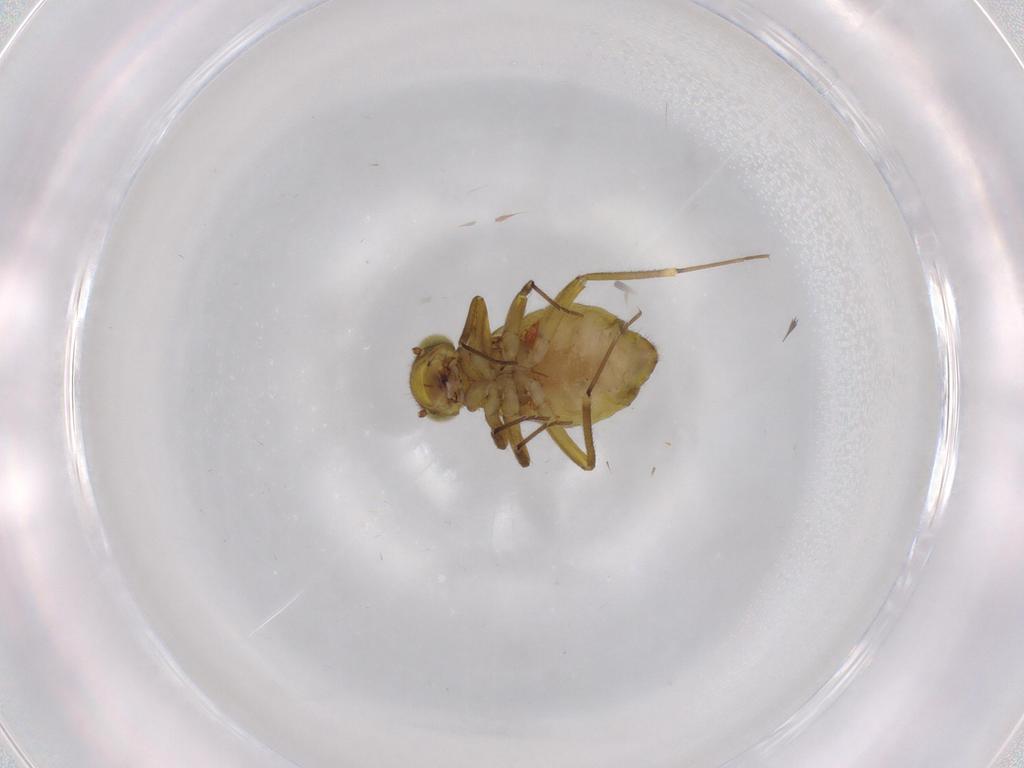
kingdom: Animalia
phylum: Arthropoda
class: Insecta
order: Psocodea
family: Philotarsidae
